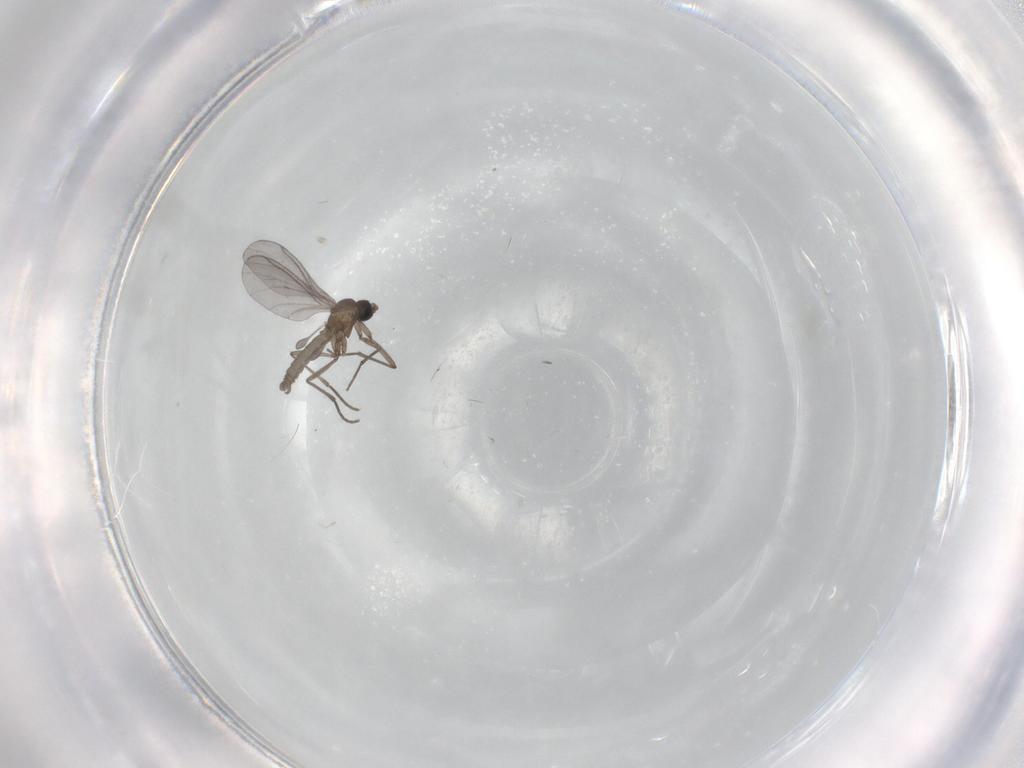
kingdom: Animalia
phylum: Arthropoda
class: Insecta
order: Diptera
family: Sciaridae
